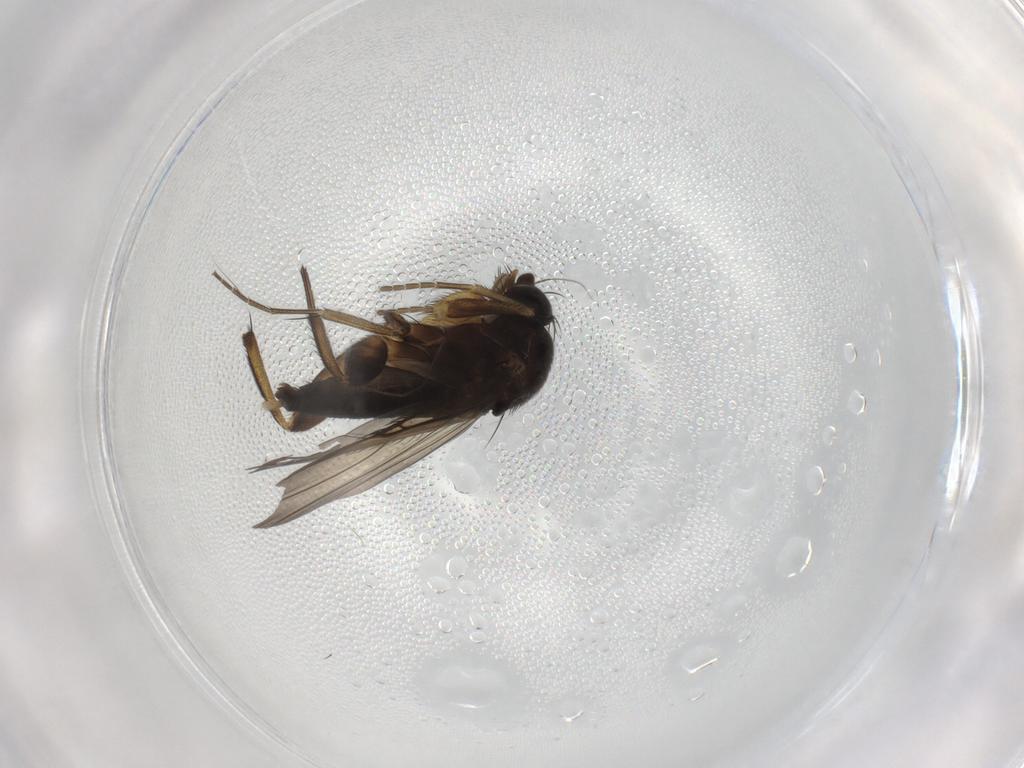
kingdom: Animalia
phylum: Arthropoda
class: Insecta
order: Diptera
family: Phoridae
